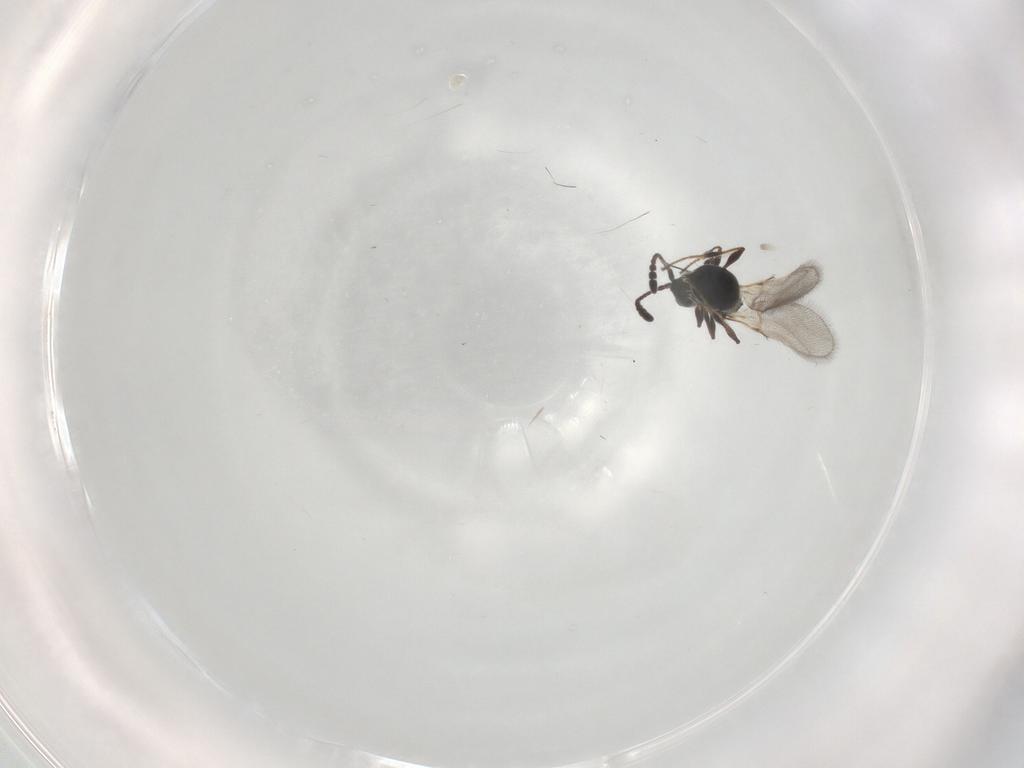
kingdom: Animalia
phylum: Arthropoda
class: Insecta
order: Hymenoptera
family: Diapriidae
